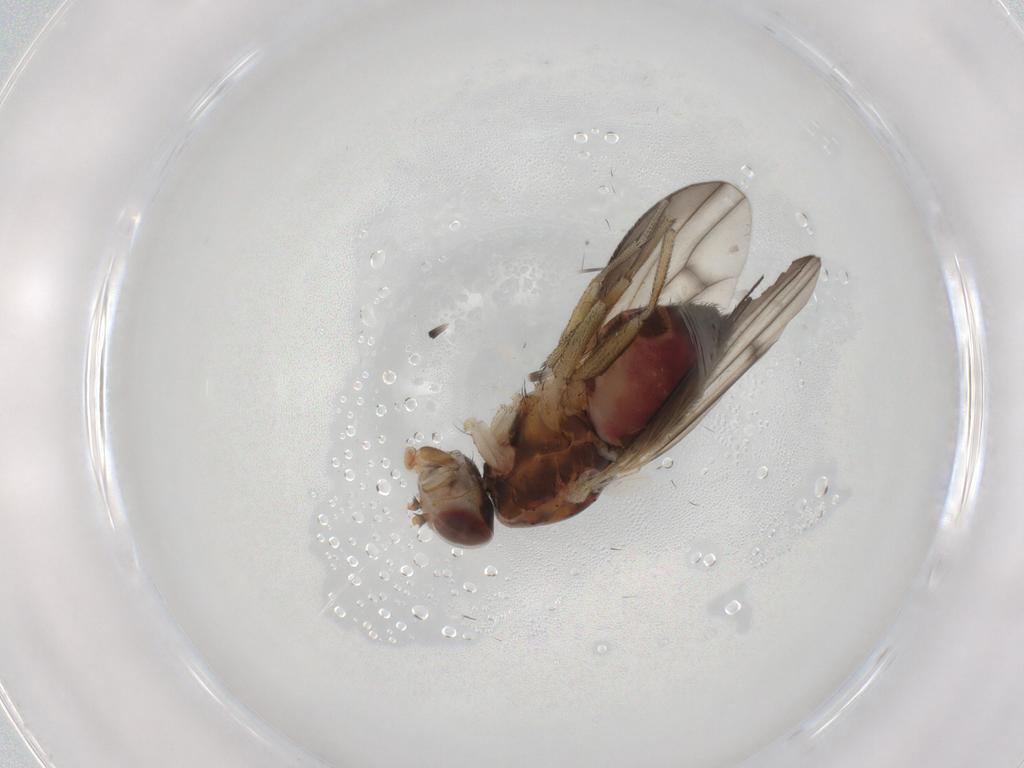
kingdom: Animalia
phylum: Arthropoda
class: Insecta
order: Diptera
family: Heleomyzidae
